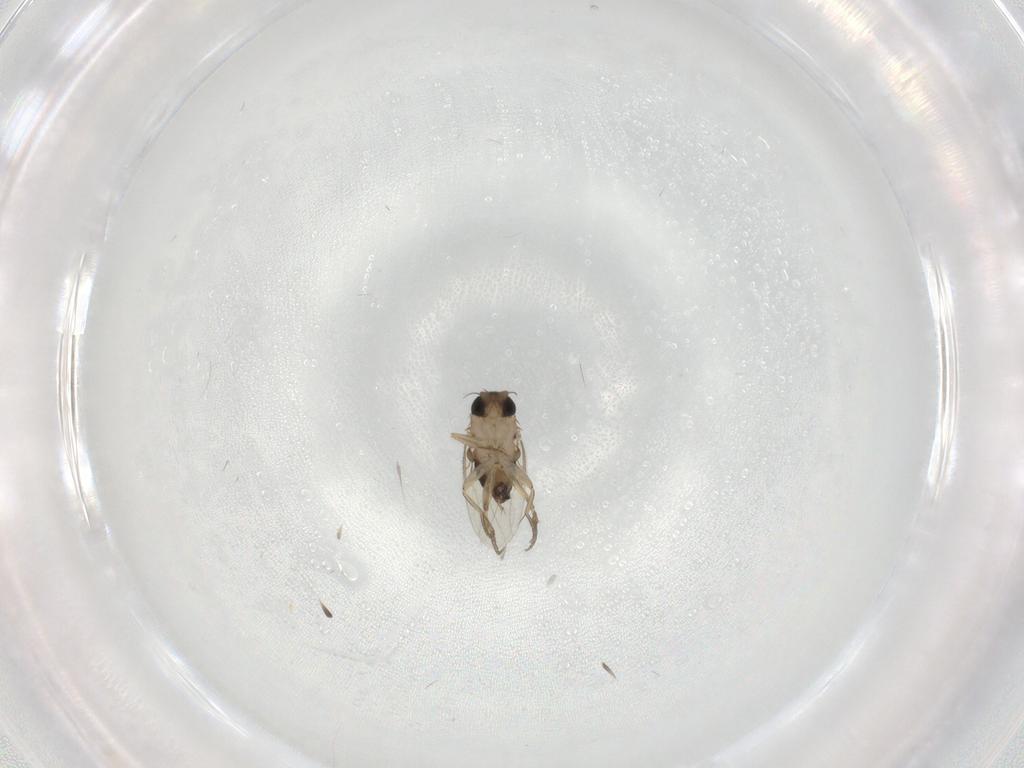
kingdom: Animalia
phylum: Arthropoda
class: Insecta
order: Diptera
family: Phoridae
